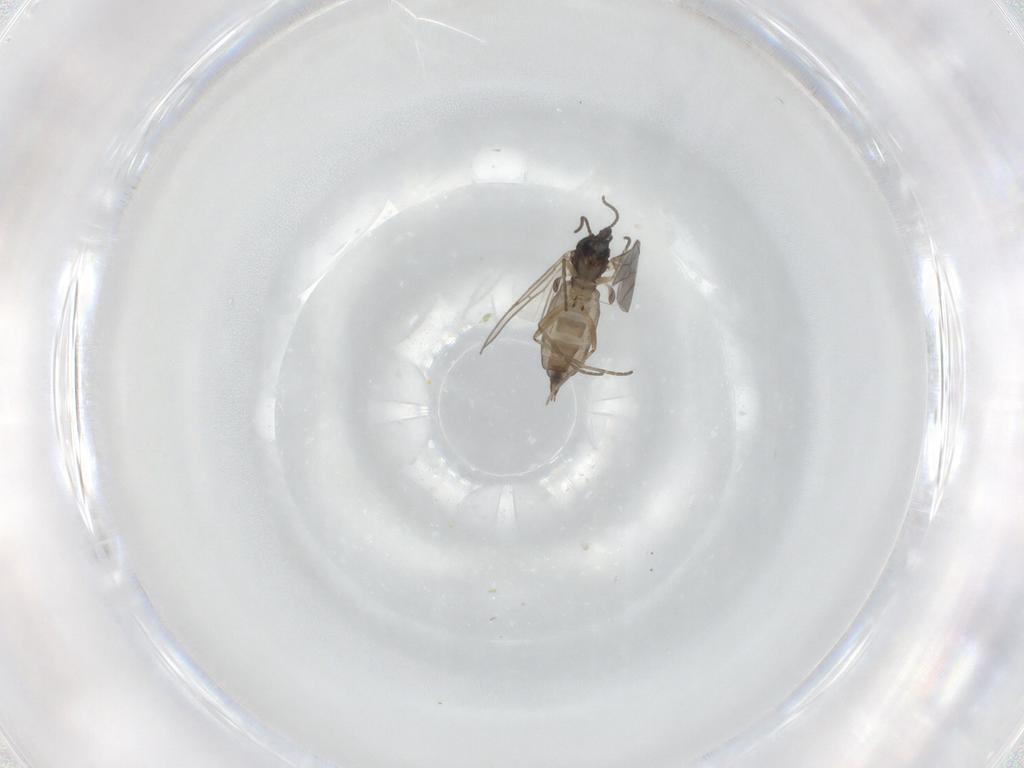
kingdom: Animalia
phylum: Arthropoda
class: Insecta
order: Diptera
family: Sciaridae
